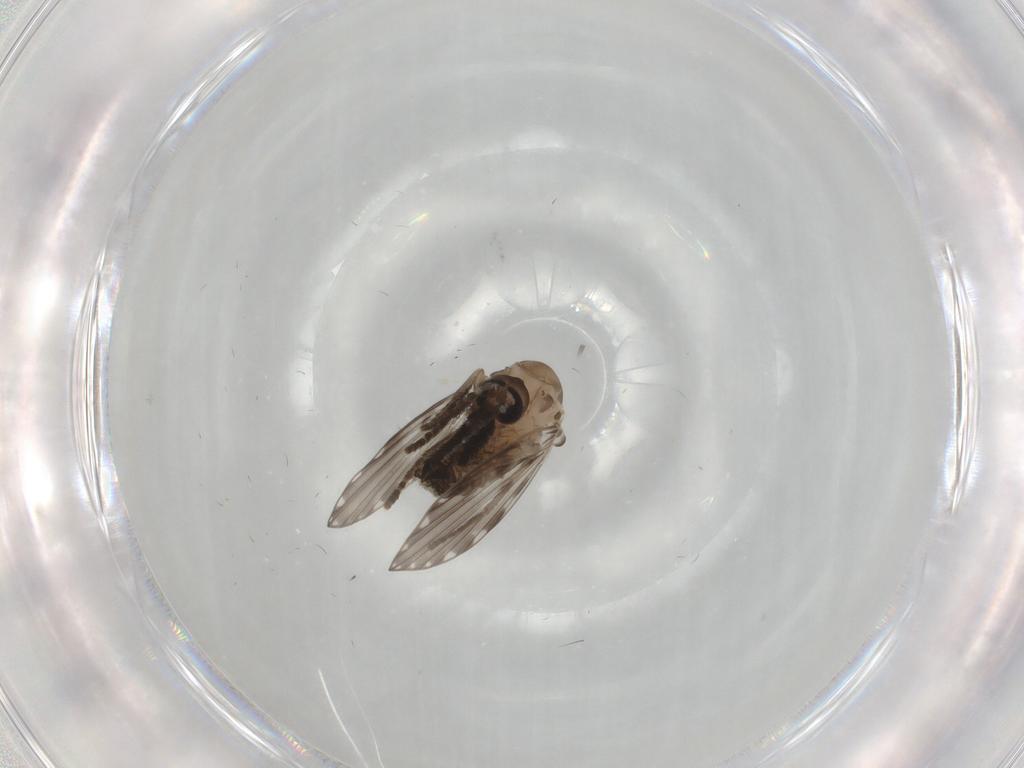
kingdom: Animalia
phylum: Arthropoda
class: Insecta
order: Diptera
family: Psychodidae
